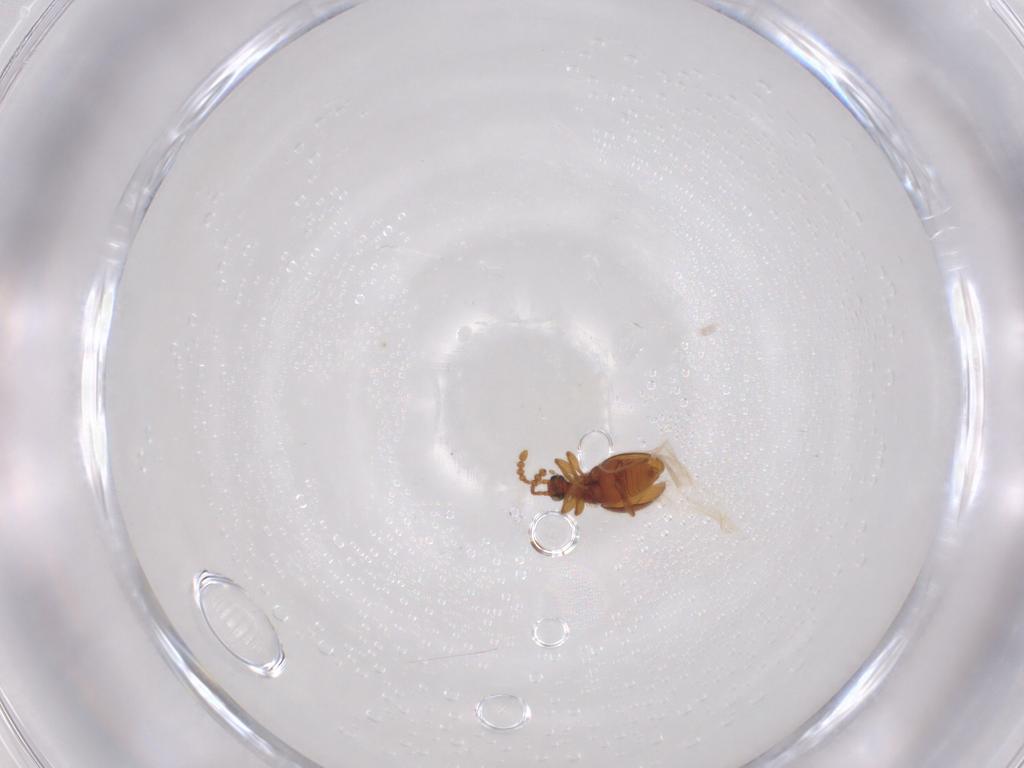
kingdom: Animalia
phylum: Arthropoda
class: Insecta
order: Coleoptera
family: Staphylinidae
